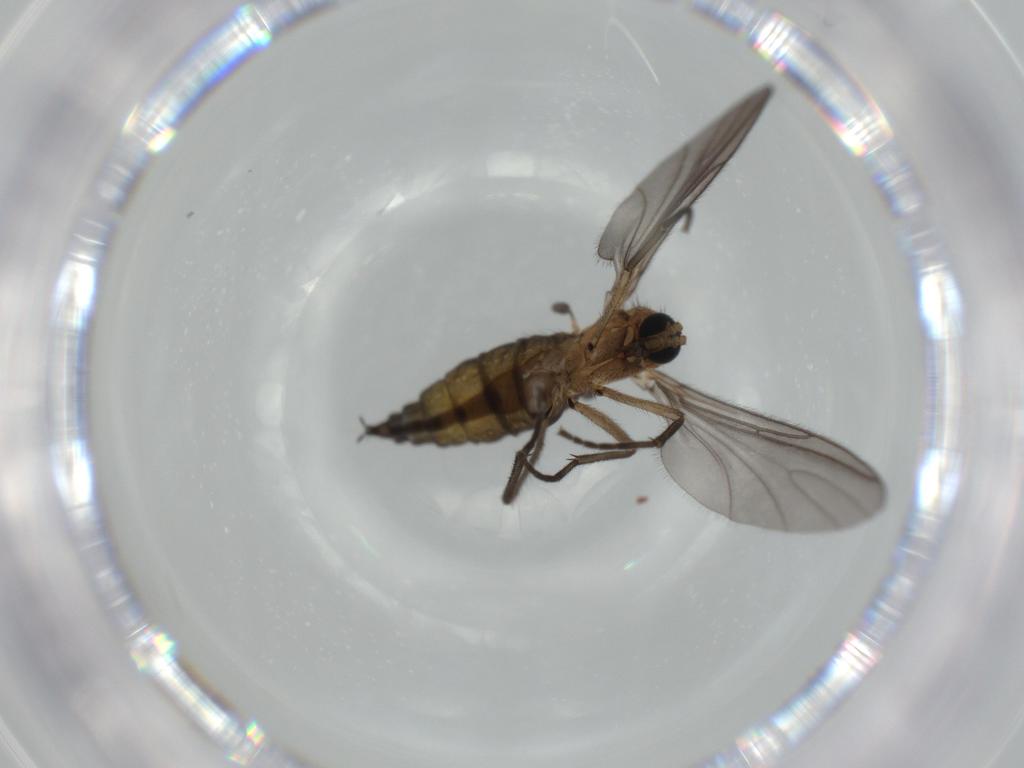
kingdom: Animalia
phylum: Arthropoda
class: Insecta
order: Diptera
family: Sciaridae
